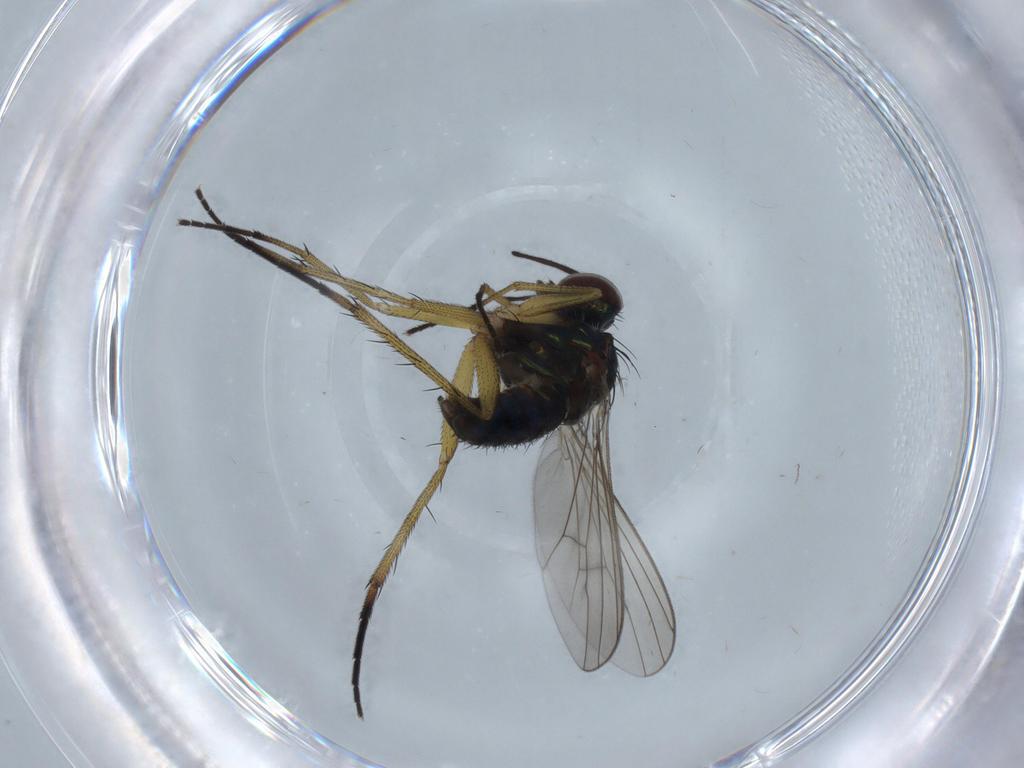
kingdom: Animalia
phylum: Arthropoda
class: Insecta
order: Diptera
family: Dolichopodidae
